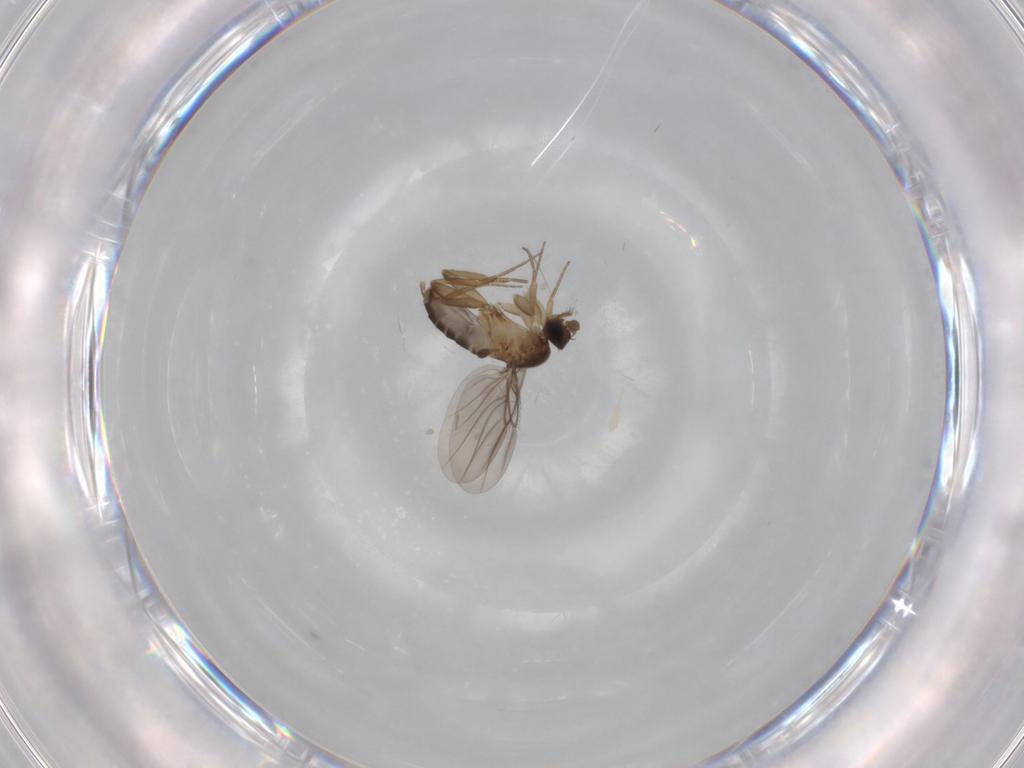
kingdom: Animalia
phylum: Arthropoda
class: Insecta
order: Diptera
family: Phoridae
